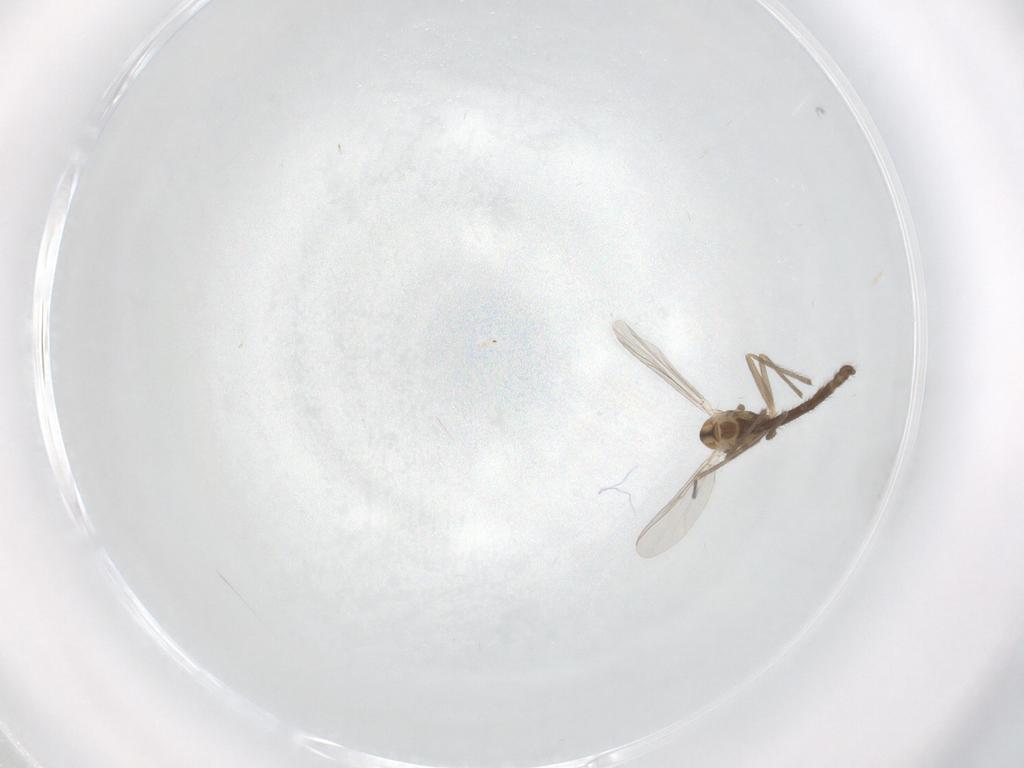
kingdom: Animalia
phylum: Arthropoda
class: Insecta
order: Diptera
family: Chironomidae
